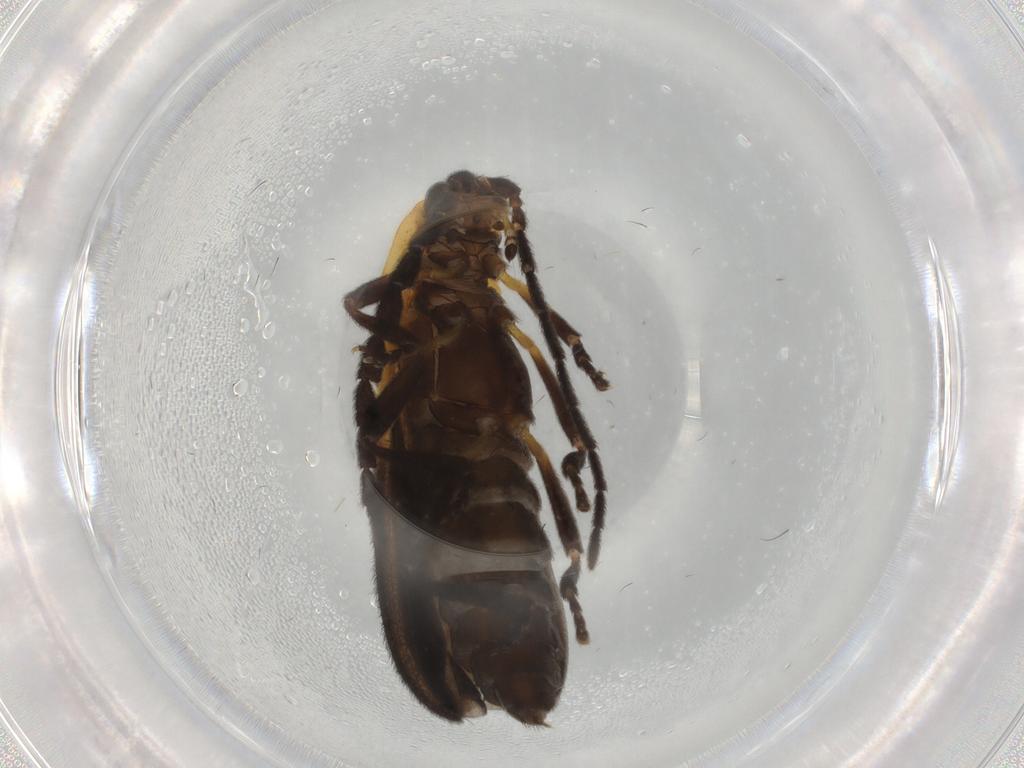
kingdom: Animalia
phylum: Arthropoda
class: Insecta
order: Coleoptera
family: Lycidae
